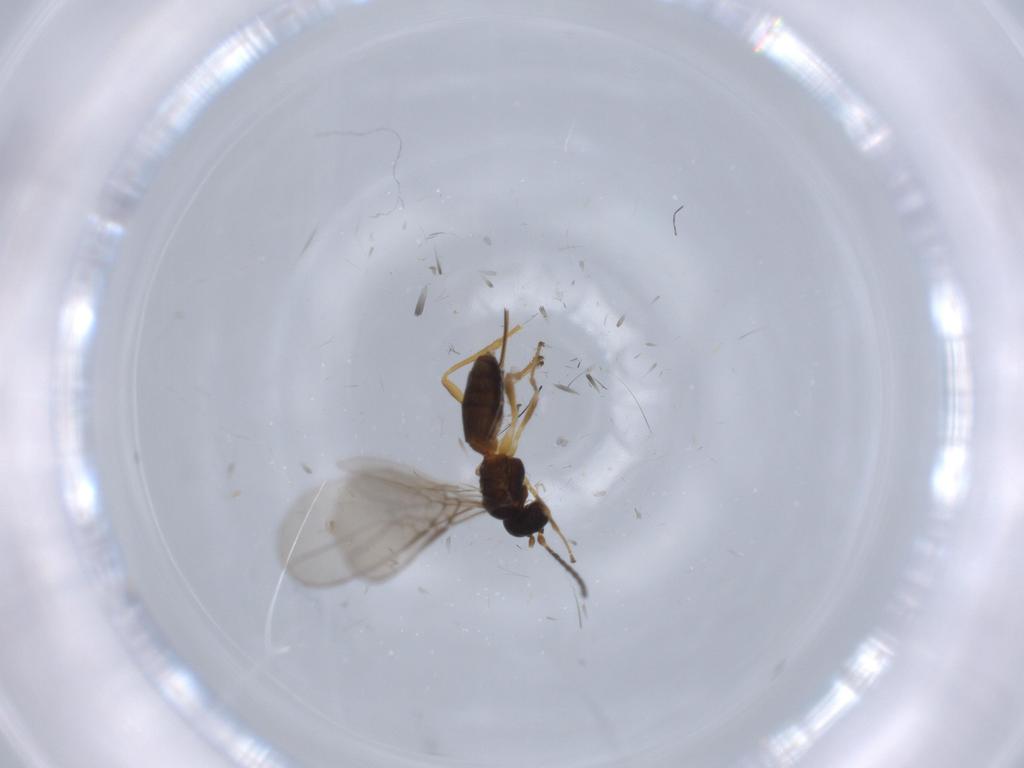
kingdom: Animalia
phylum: Arthropoda
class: Insecta
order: Hymenoptera
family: Braconidae
